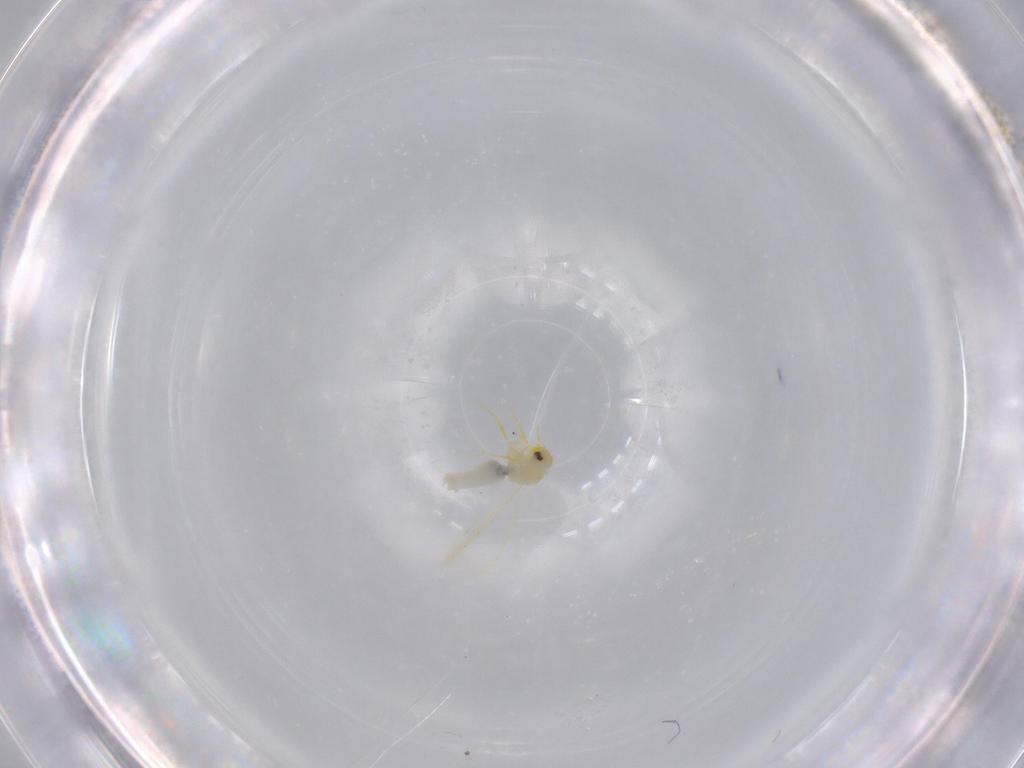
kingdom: Animalia
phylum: Arthropoda
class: Insecta
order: Hemiptera
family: Aleyrodidae
